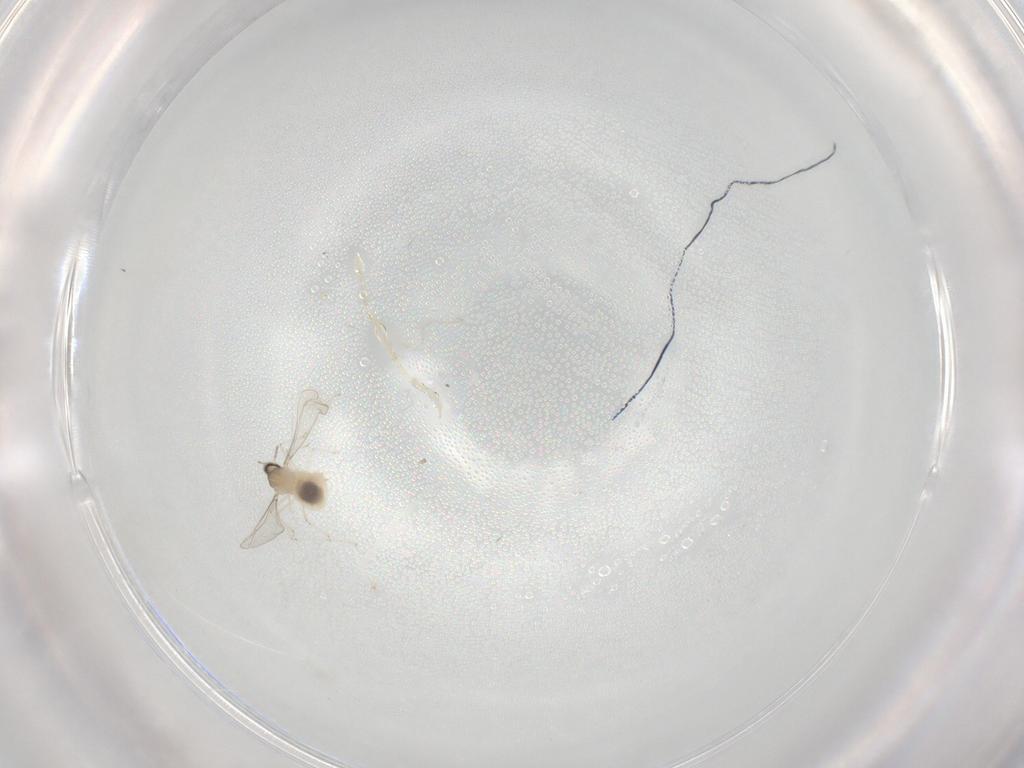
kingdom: Animalia
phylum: Arthropoda
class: Insecta
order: Diptera
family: Cecidomyiidae
